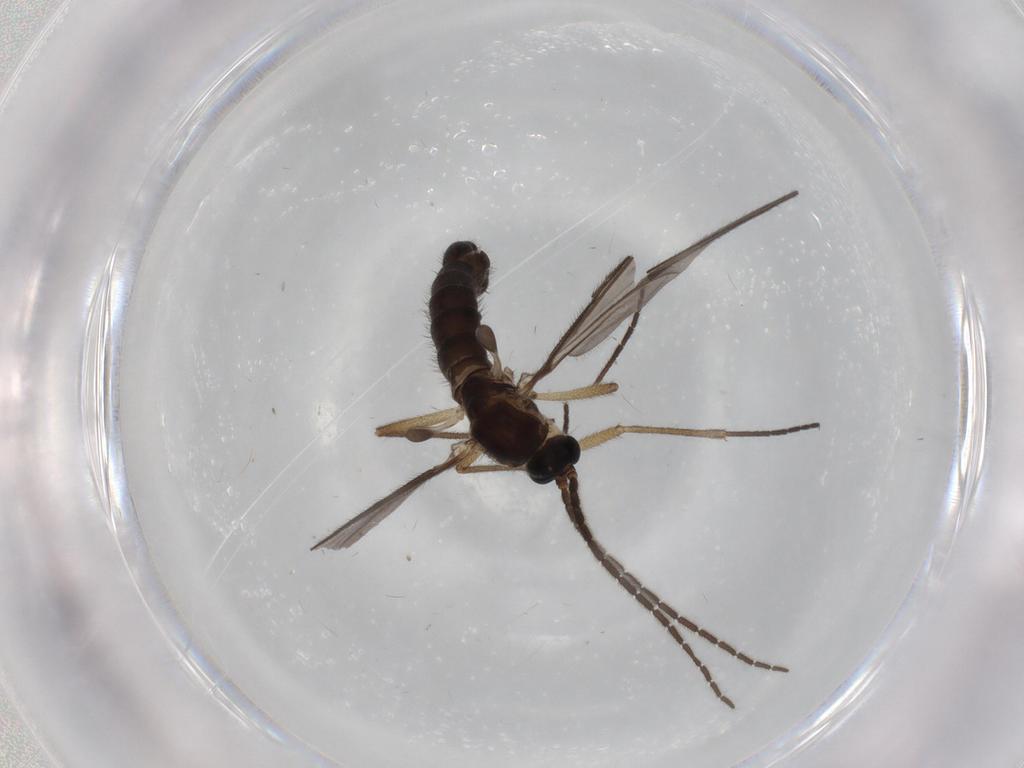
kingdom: Animalia
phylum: Arthropoda
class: Insecta
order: Diptera
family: Sciaridae
